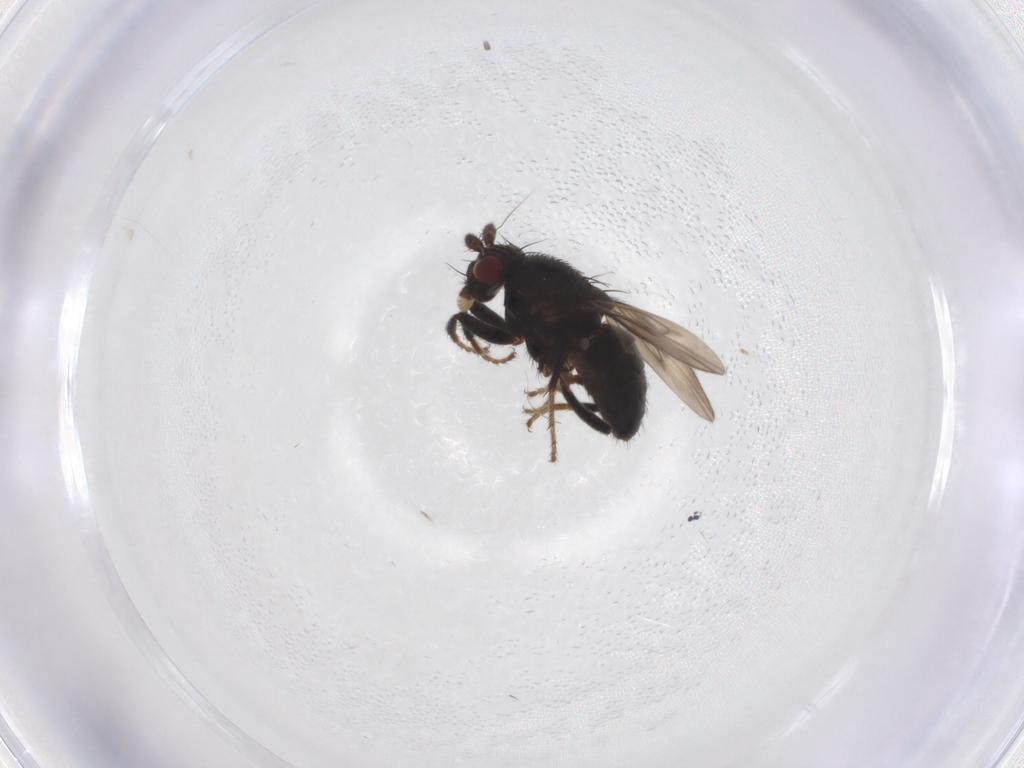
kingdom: Animalia
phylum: Arthropoda
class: Insecta
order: Diptera
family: Sphaeroceridae
